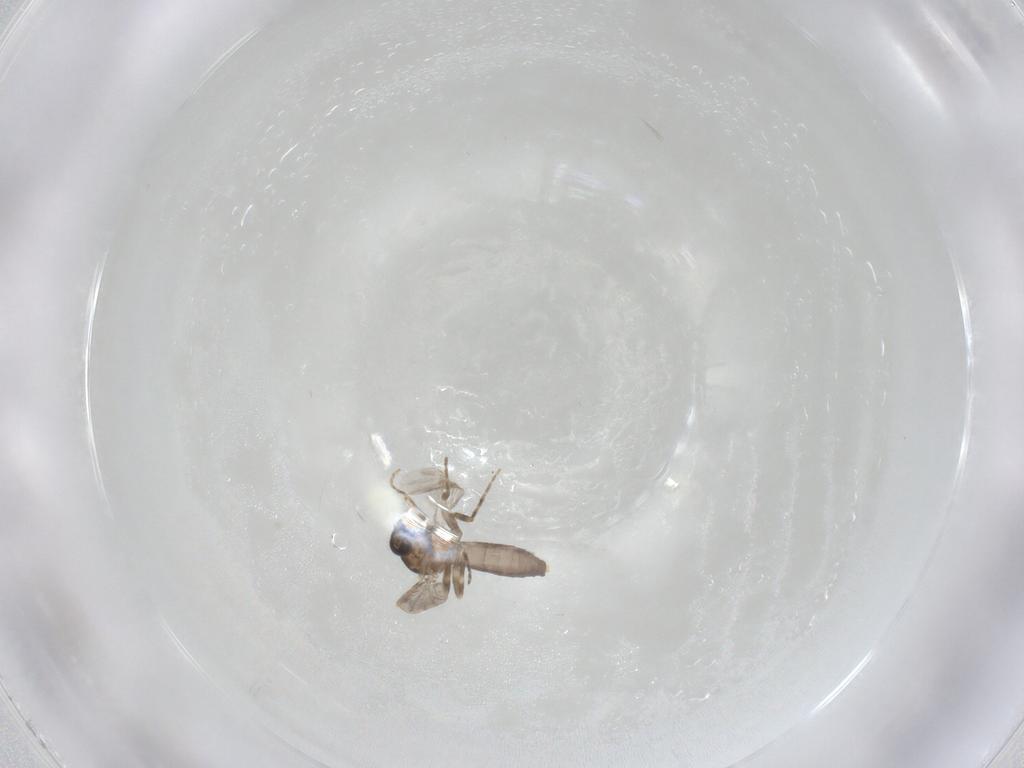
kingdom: Animalia
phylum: Arthropoda
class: Insecta
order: Diptera
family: Ceratopogonidae
